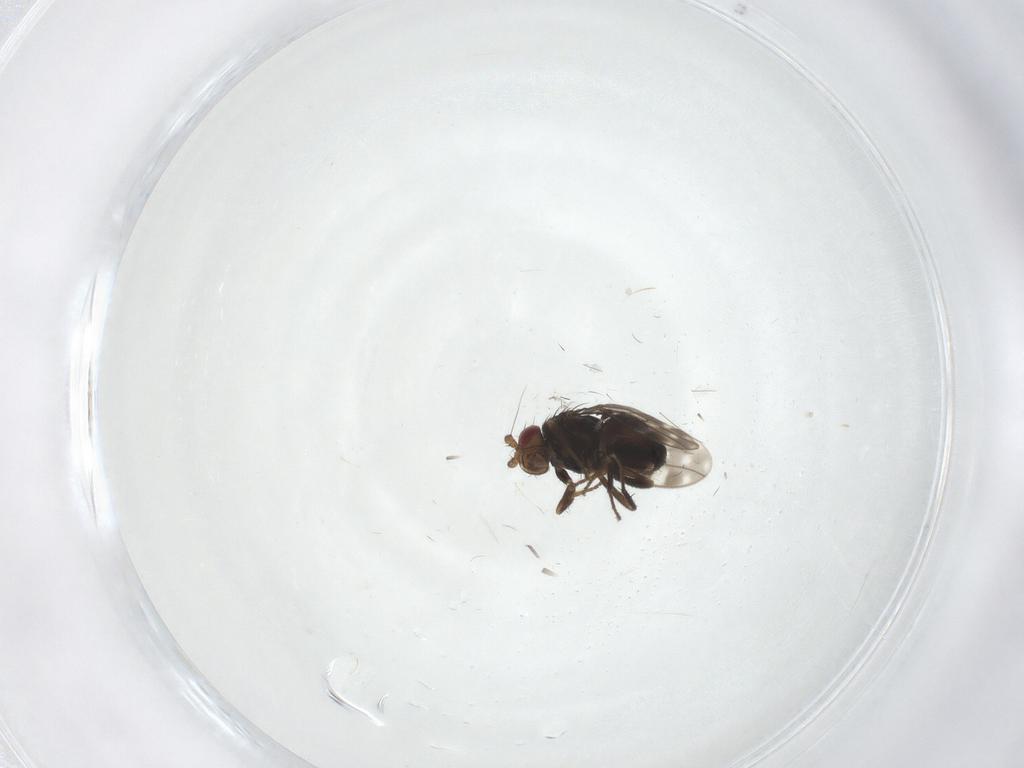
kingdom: Animalia
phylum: Arthropoda
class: Insecta
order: Diptera
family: Sphaeroceridae
